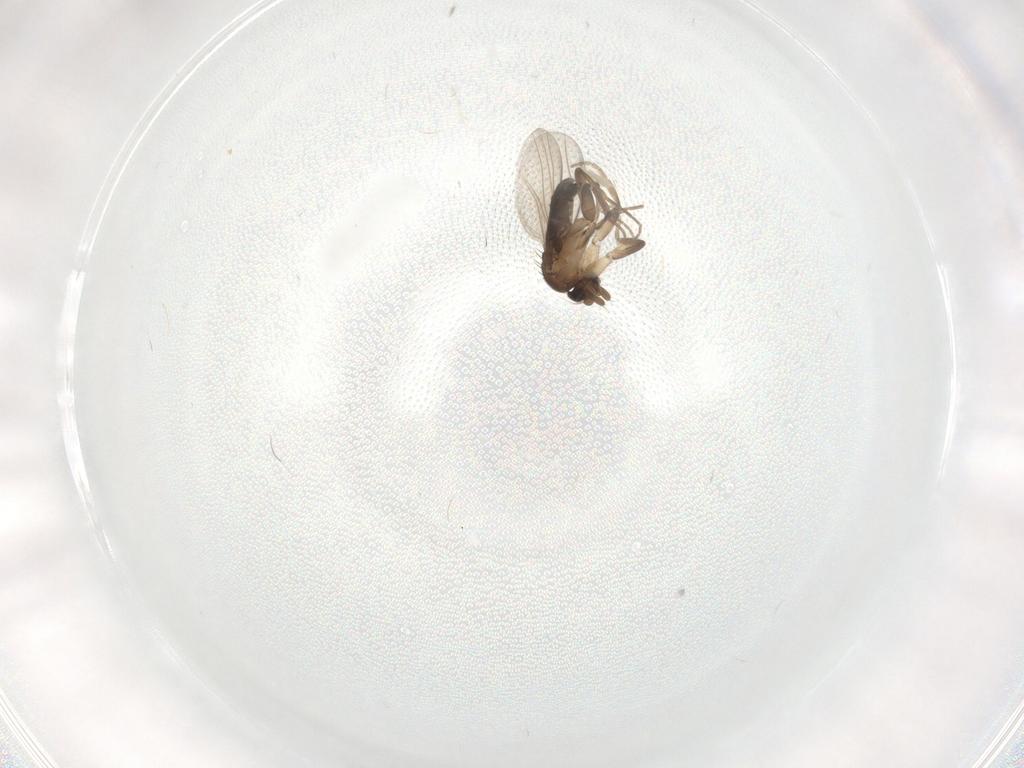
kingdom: Animalia
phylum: Arthropoda
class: Insecta
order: Diptera
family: Phoridae
